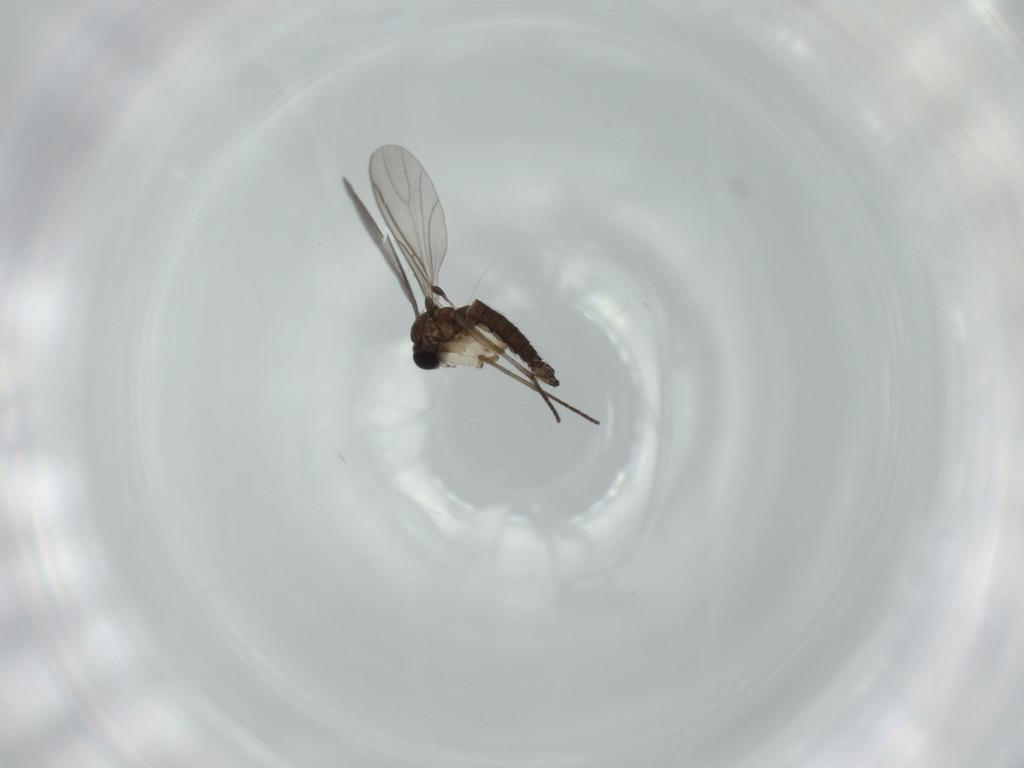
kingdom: Animalia
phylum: Arthropoda
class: Insecta
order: Diptera
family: Sciaridae
